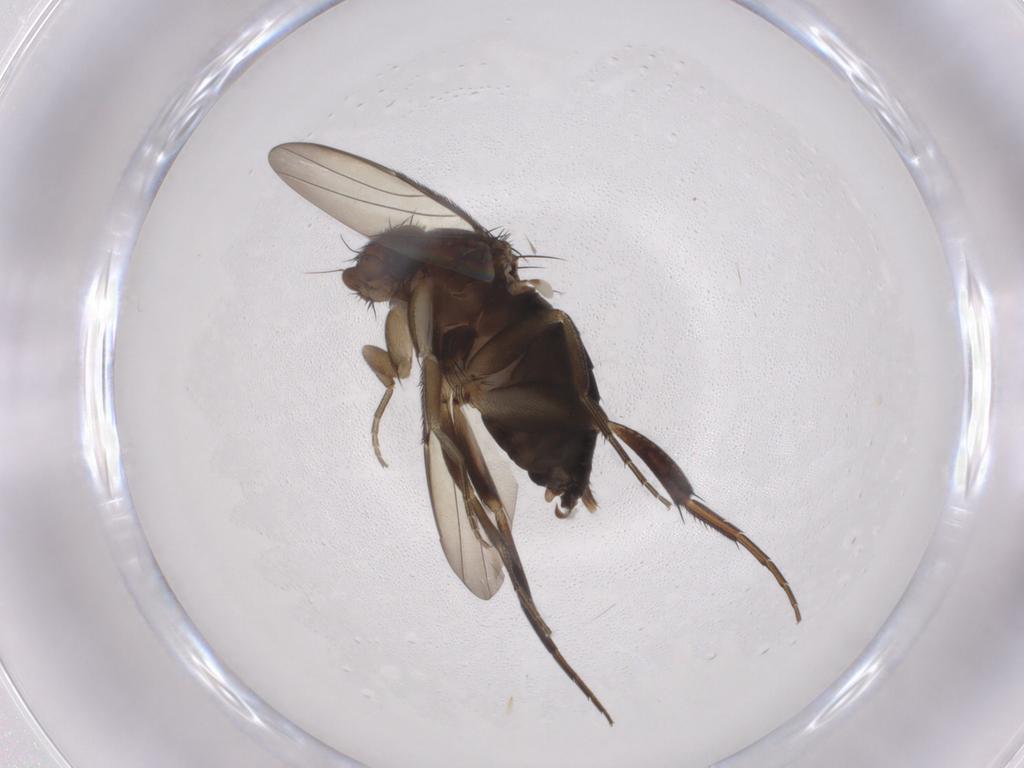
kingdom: Animalia
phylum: Arthropoda
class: Insecta
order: Diptera
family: Phoridae
